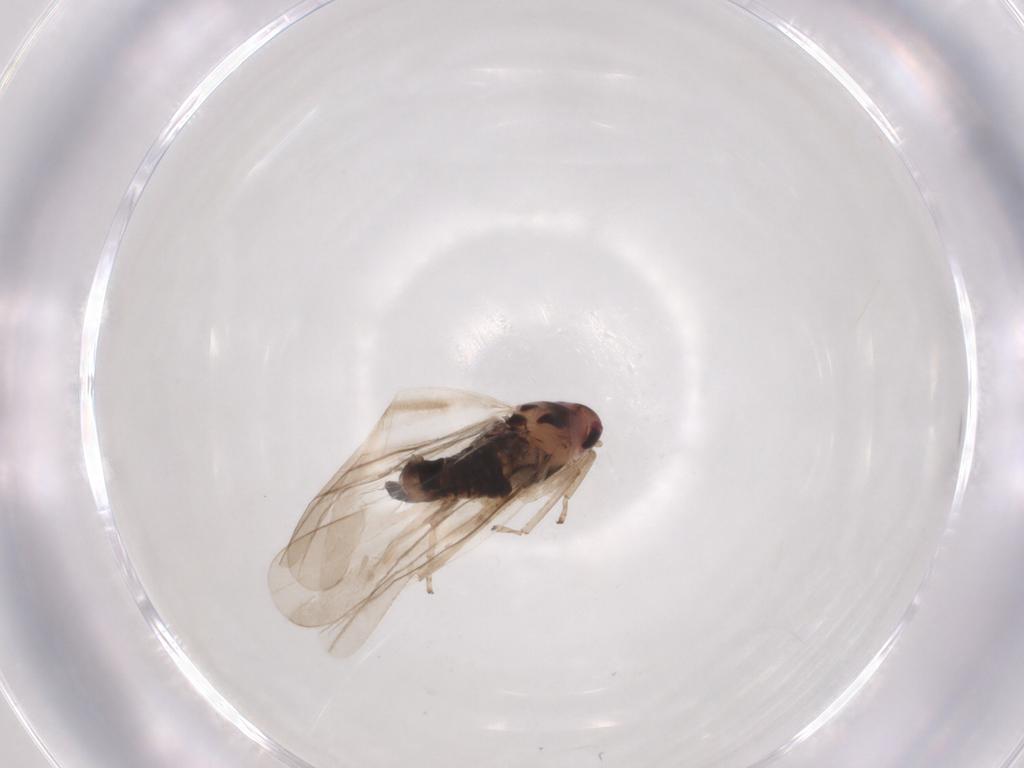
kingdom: Animalia
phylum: Arthropoda
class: Insecta
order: Hemiptera
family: Cicadellidae
